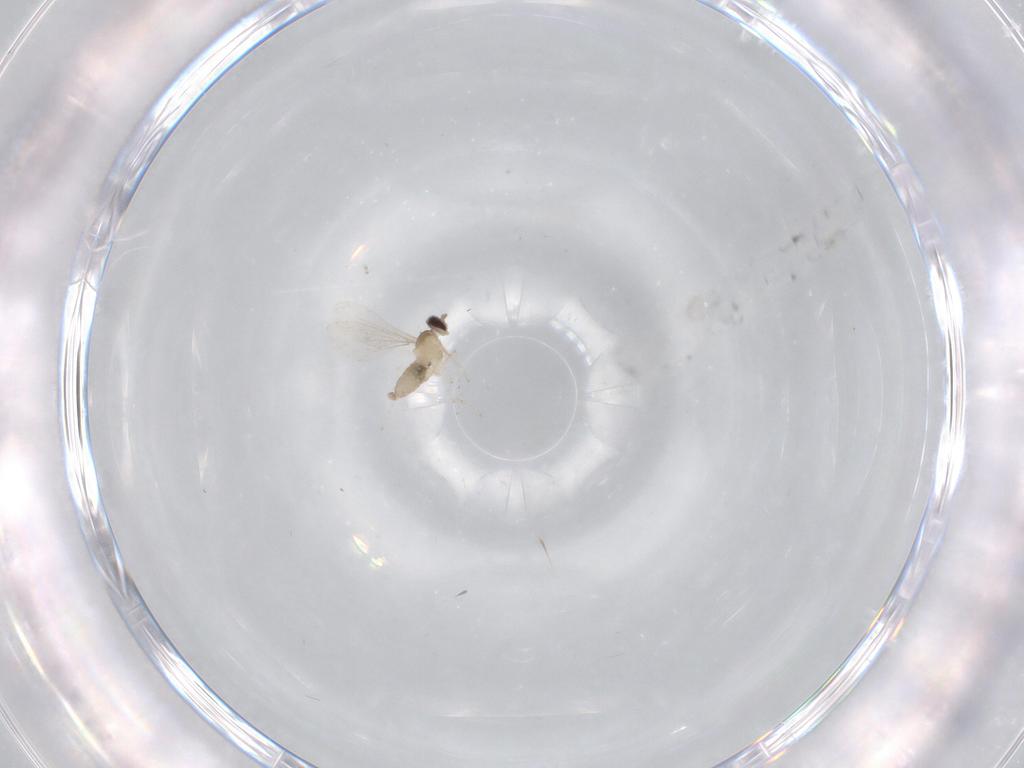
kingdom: Animalia
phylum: Arthropoda
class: Insecta
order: Diptera
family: Cecidomyiidae
